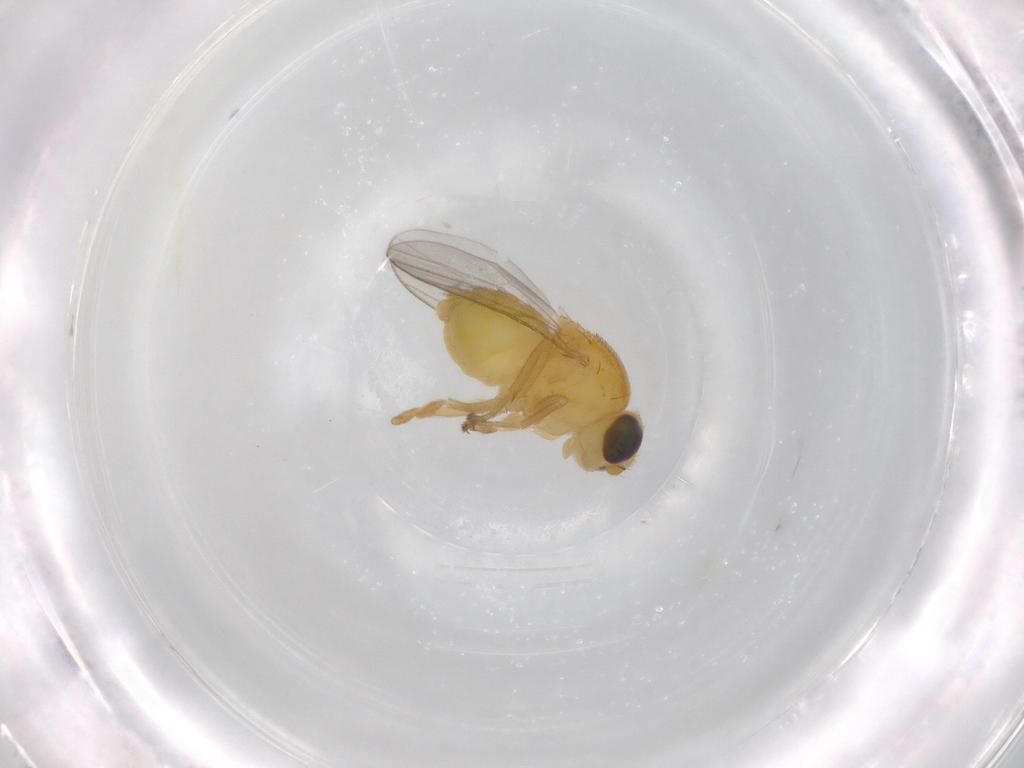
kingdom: Animalia
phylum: Arthropoda
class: Insecta
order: Diptera
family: Chloropidae
